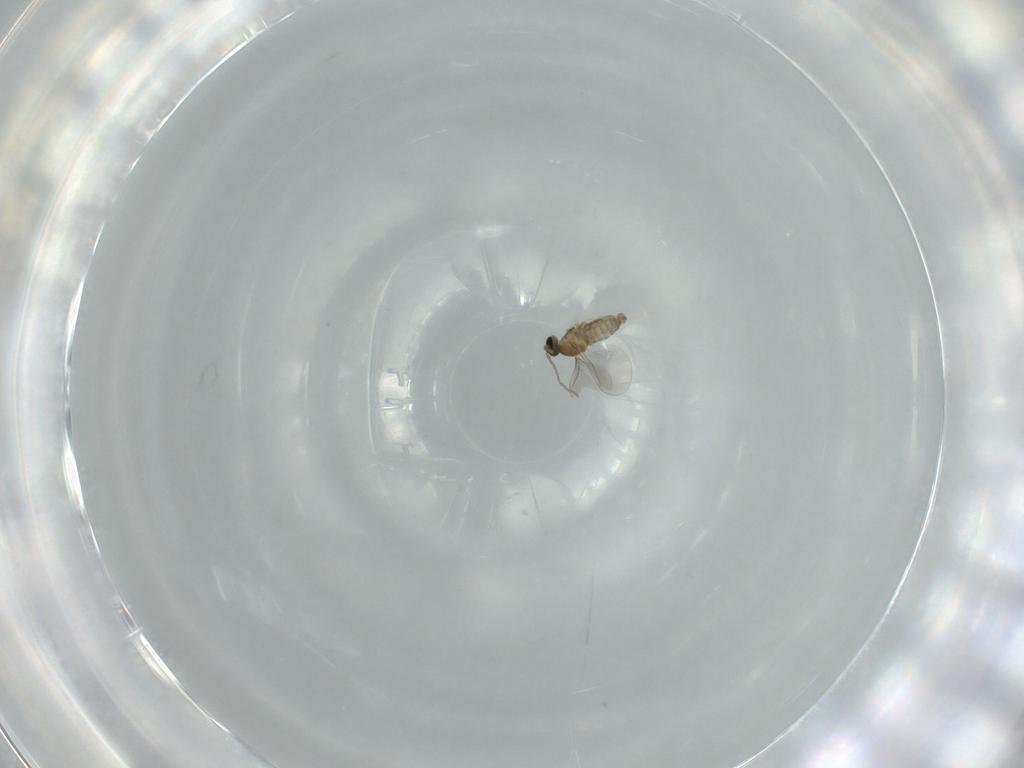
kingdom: Animalia
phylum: Arthropoda
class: Insecta
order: Diptera
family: Cecidomyiidae
